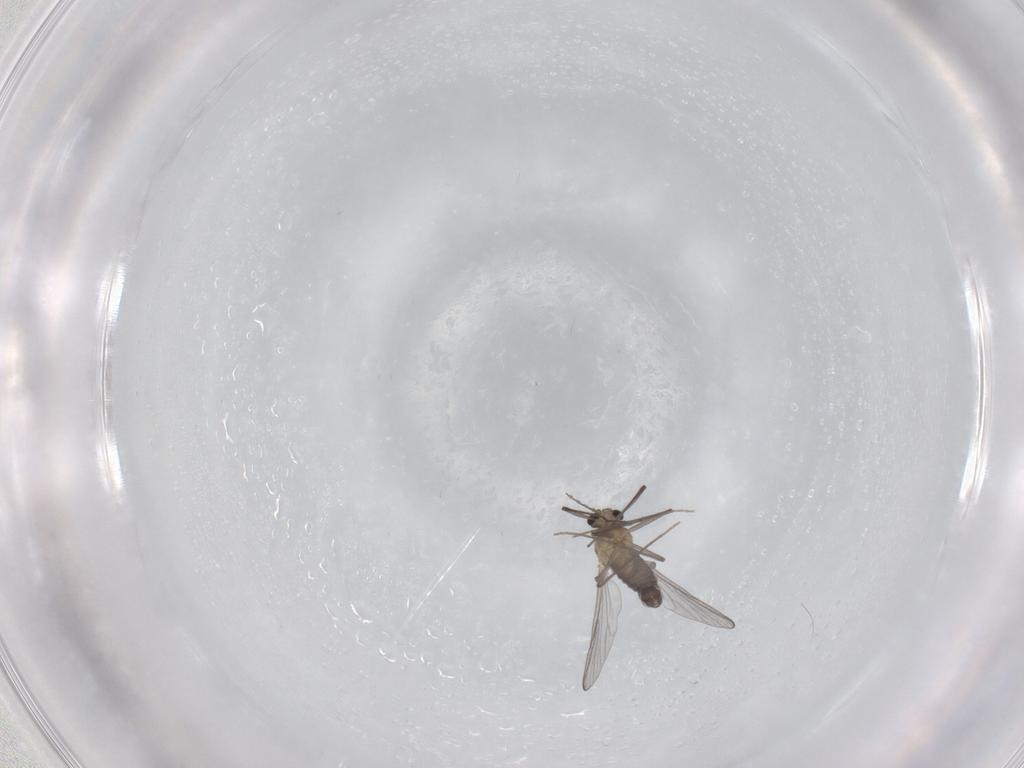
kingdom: Animalia
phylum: Arthropoda
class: Insecta
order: Diptera
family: Chironomidae
